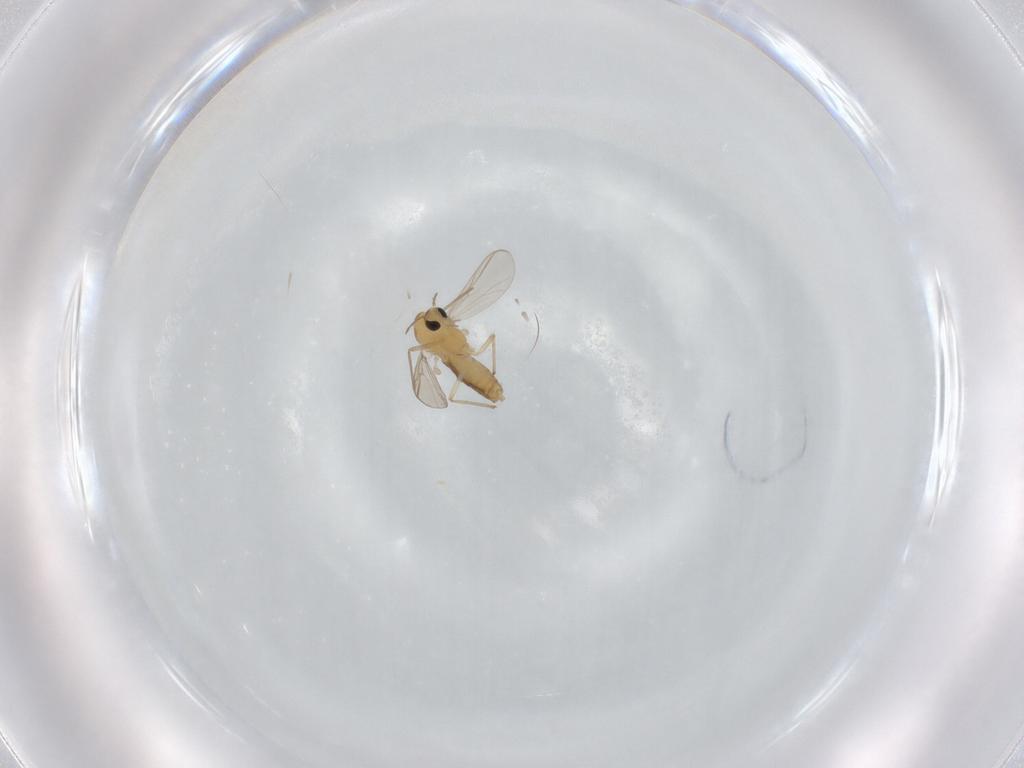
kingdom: Animalia
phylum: Arthropoda
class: Insecta
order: Diptera
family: Chironomidae
